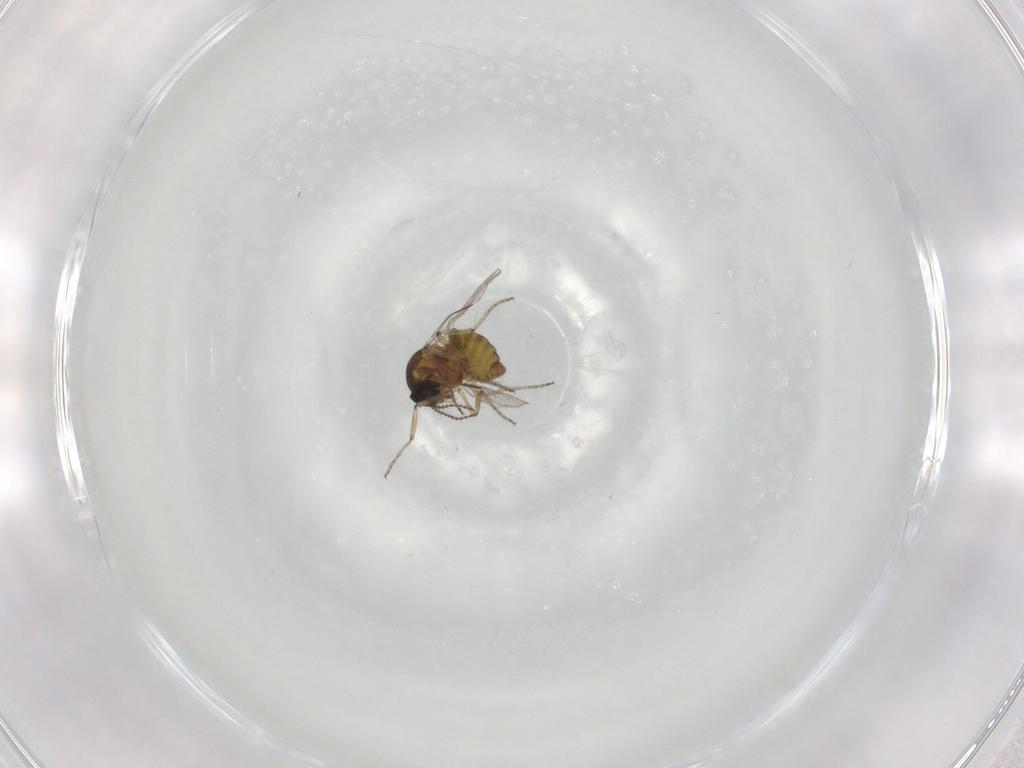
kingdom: Animalia
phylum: Arthropoda
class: Insecta
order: Diptera
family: Ceratopogonidae
